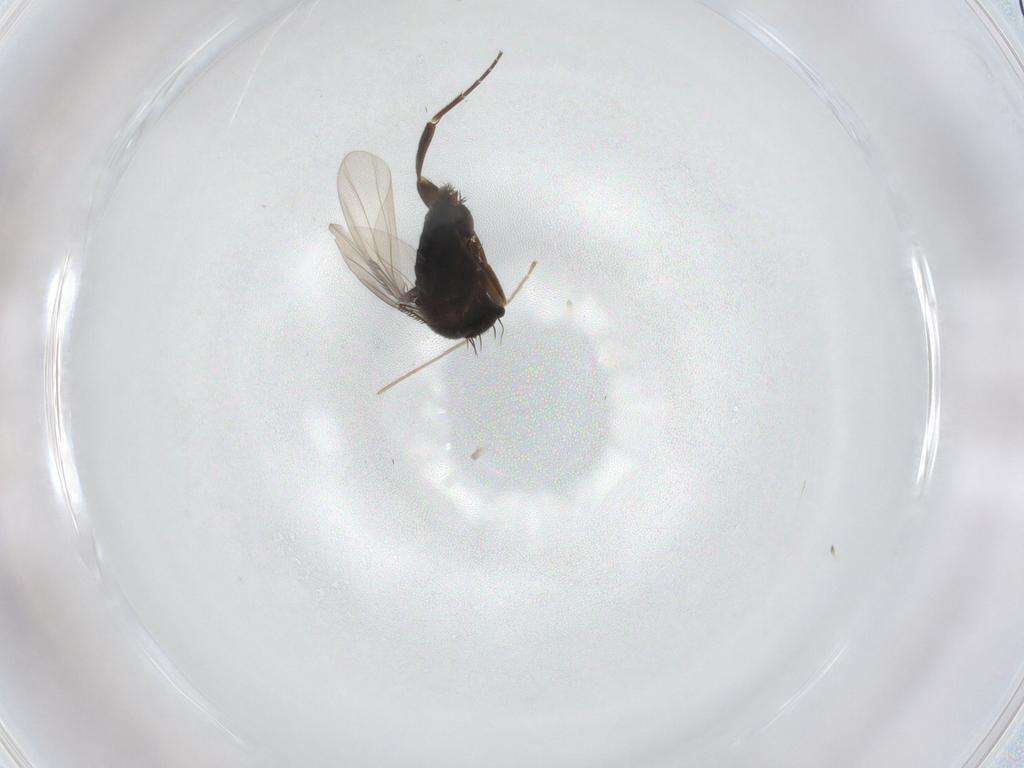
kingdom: Animalia
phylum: Arthropoda
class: Insecta
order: Diptera
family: Phoridae
